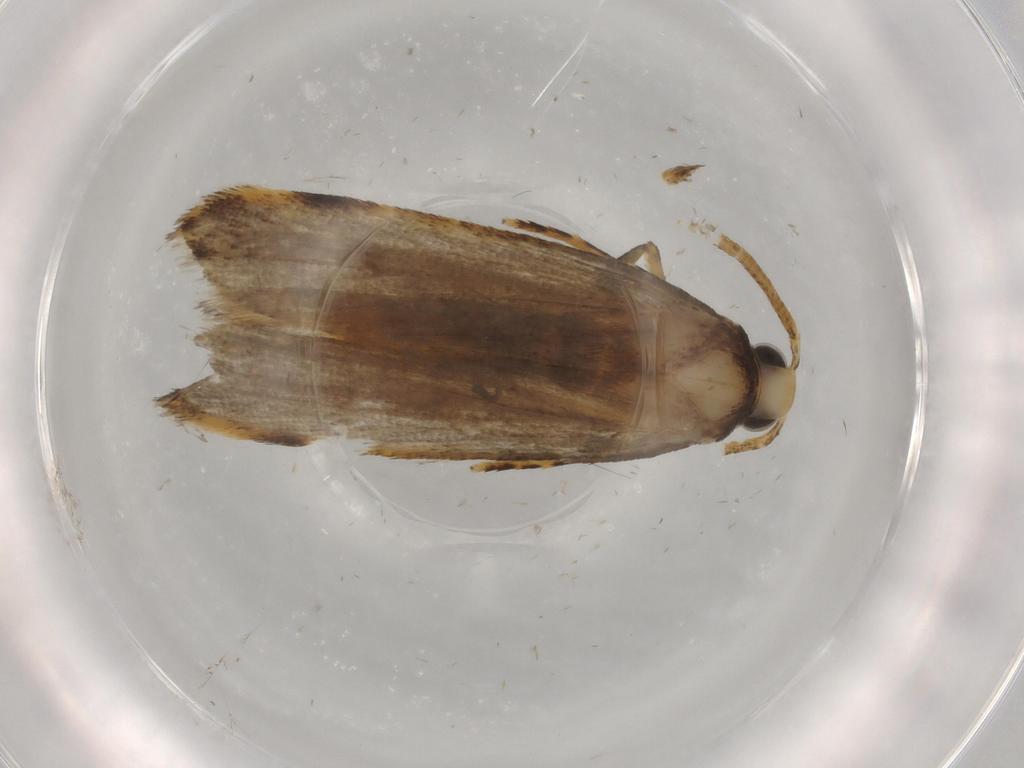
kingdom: Animalia
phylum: Arthropoda
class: Insecta
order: Lepidoptera
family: Autostichidae
